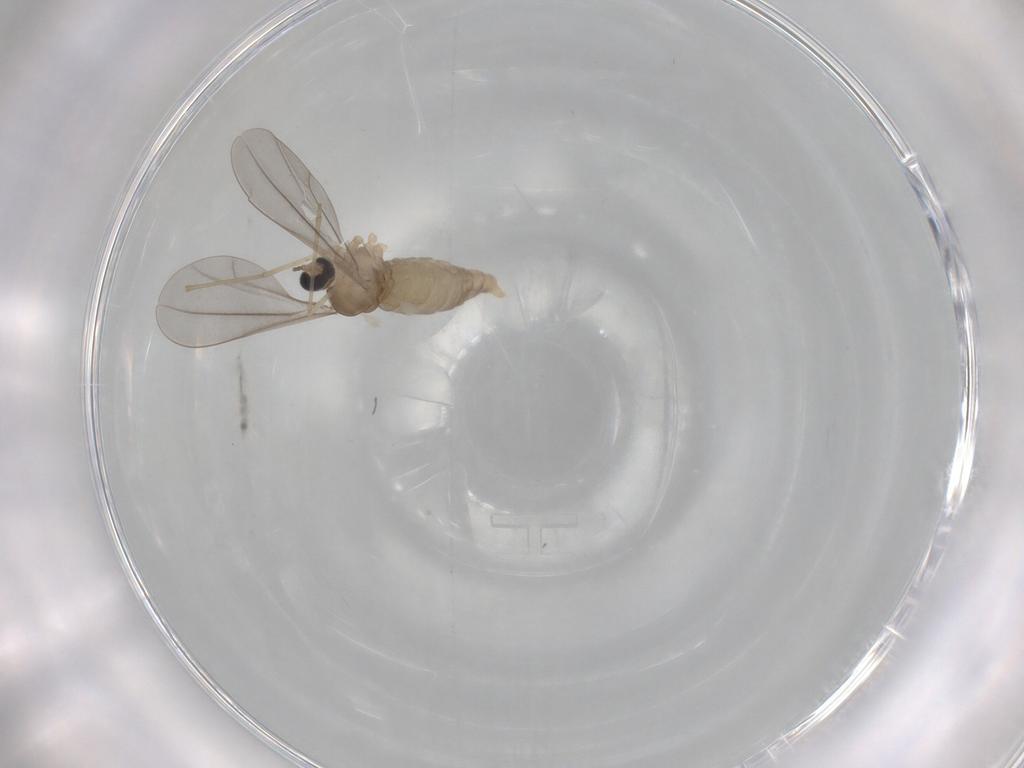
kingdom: Animalia
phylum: Arthropoda
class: Insecta
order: Diptera
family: Cecidomyiidae
